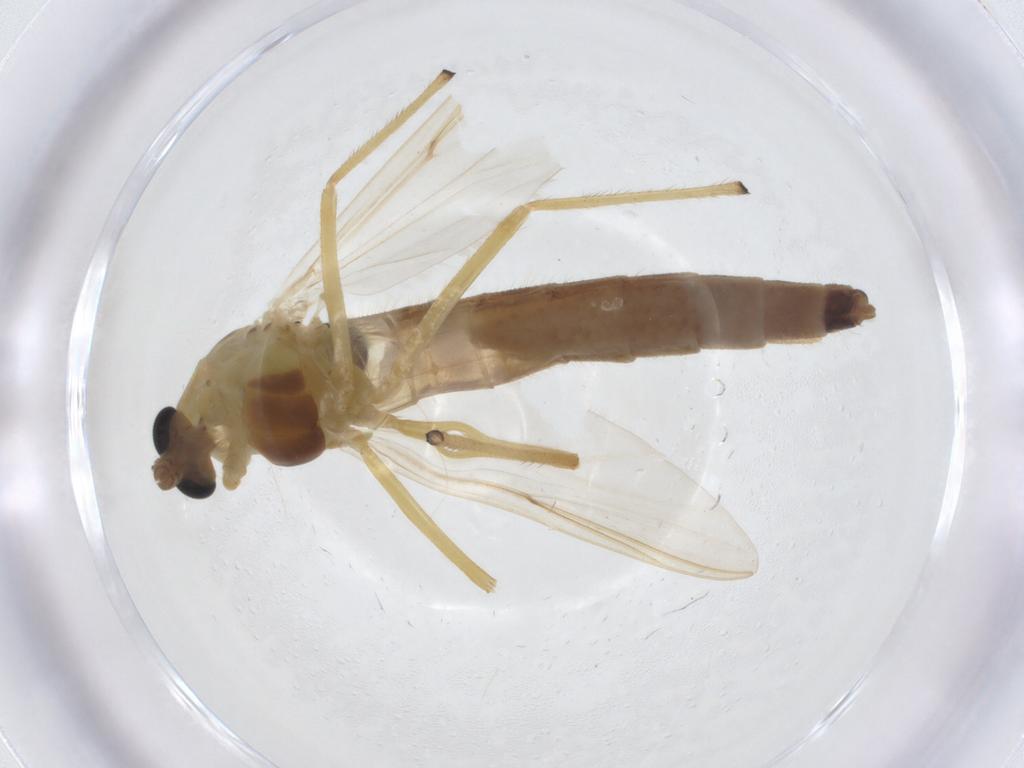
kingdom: Animalia
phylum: Arthropoda
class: Insecta
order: Diptera
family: Chironomidae
